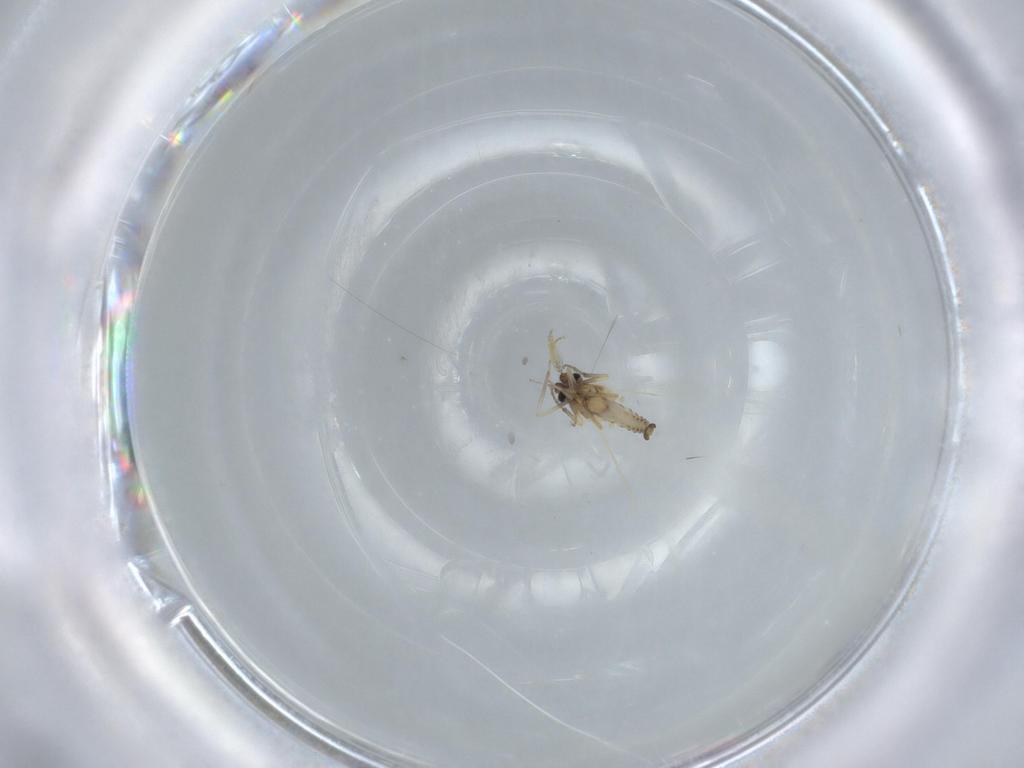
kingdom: Animalia
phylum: Arthropoda
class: Insecta
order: Diptera
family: Ceratopogonidae
